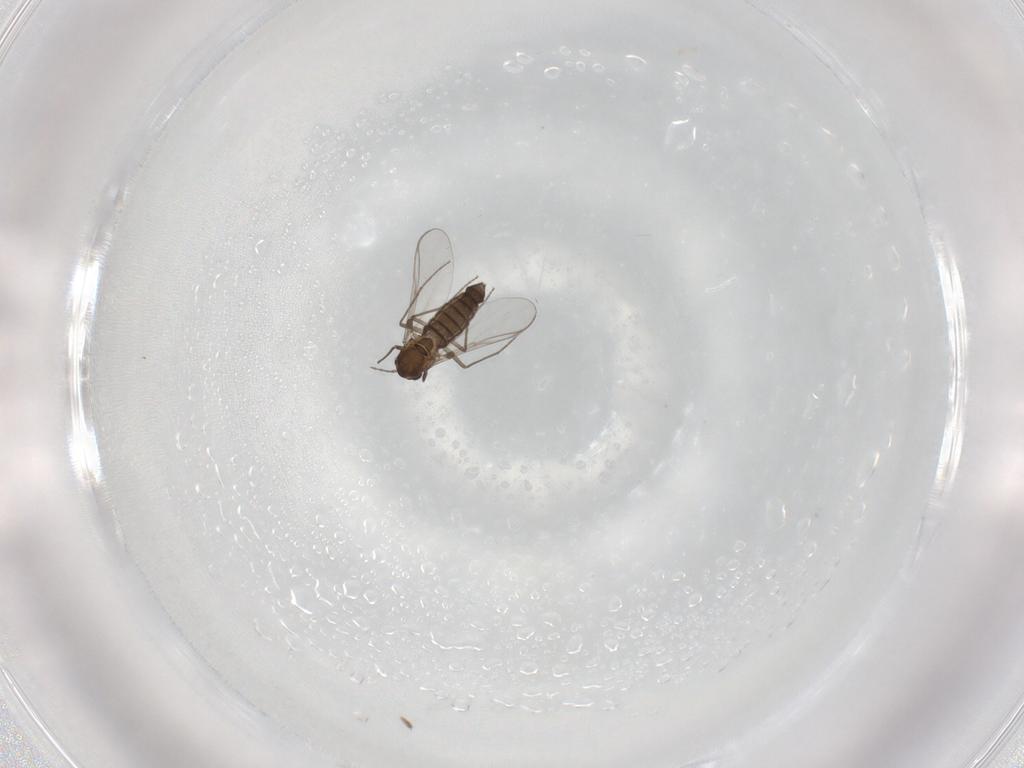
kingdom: Animalia
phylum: Arthropoda
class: Insecta
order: Diptera
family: Chironomidae
